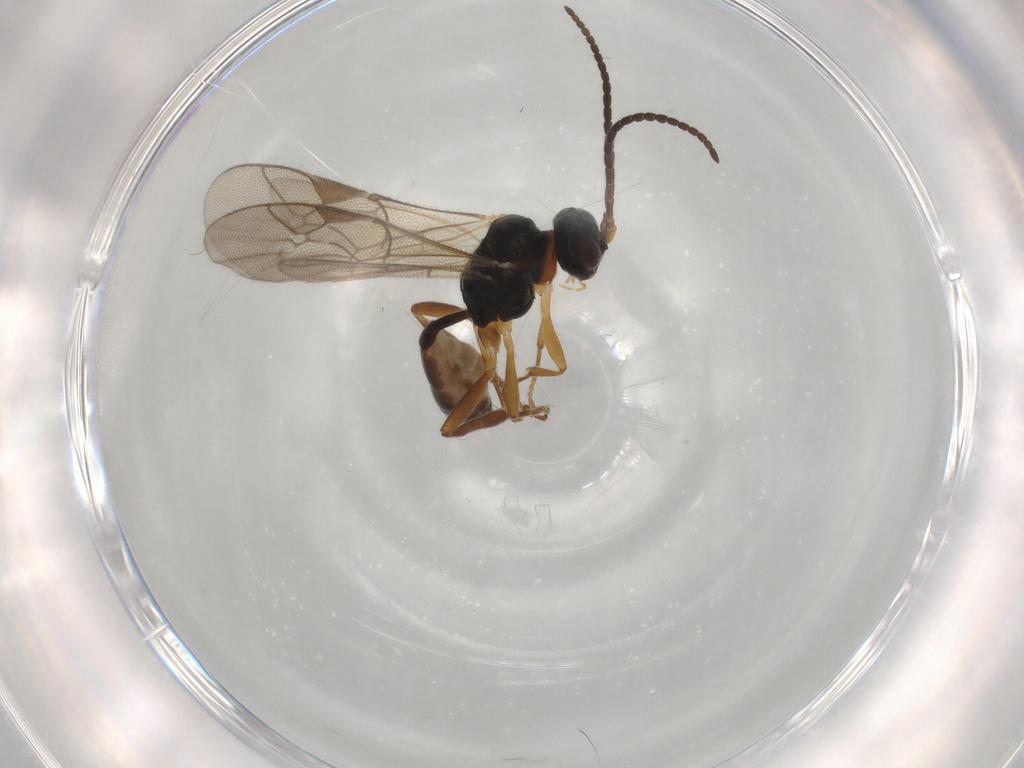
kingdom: Animalia
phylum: Arthropoda
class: Insecta
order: Hymenoptera
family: Ichneumonidae
